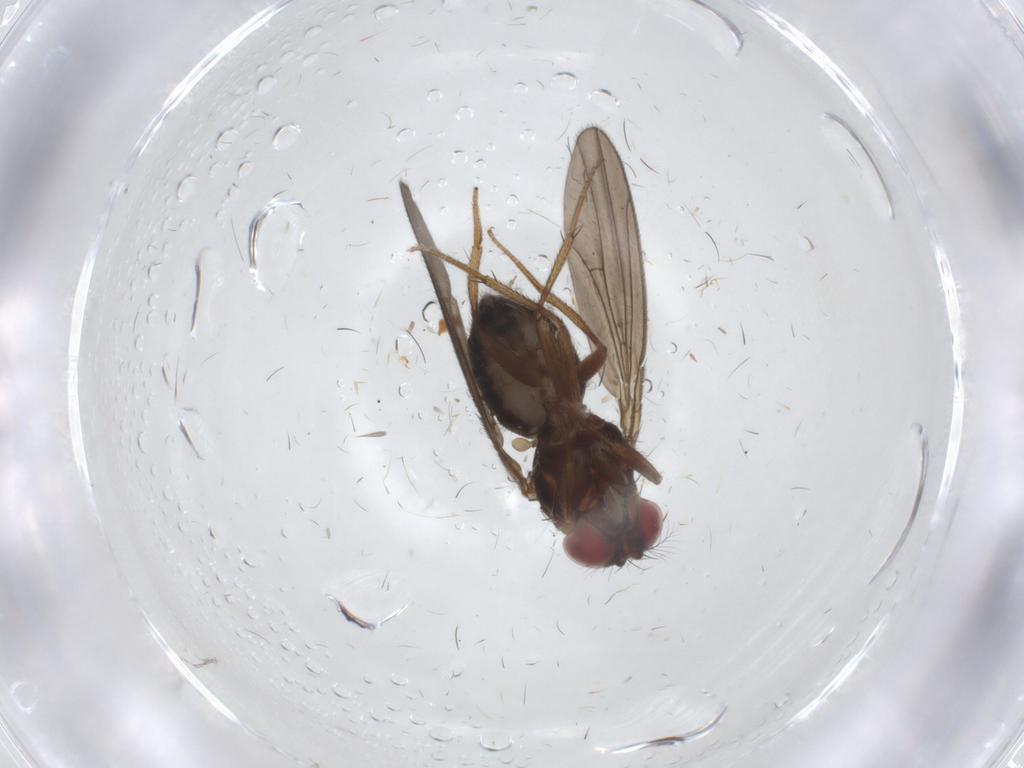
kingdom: Animalia
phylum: Arthropoda
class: Insecta
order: Diptera
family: Drosophilidae
